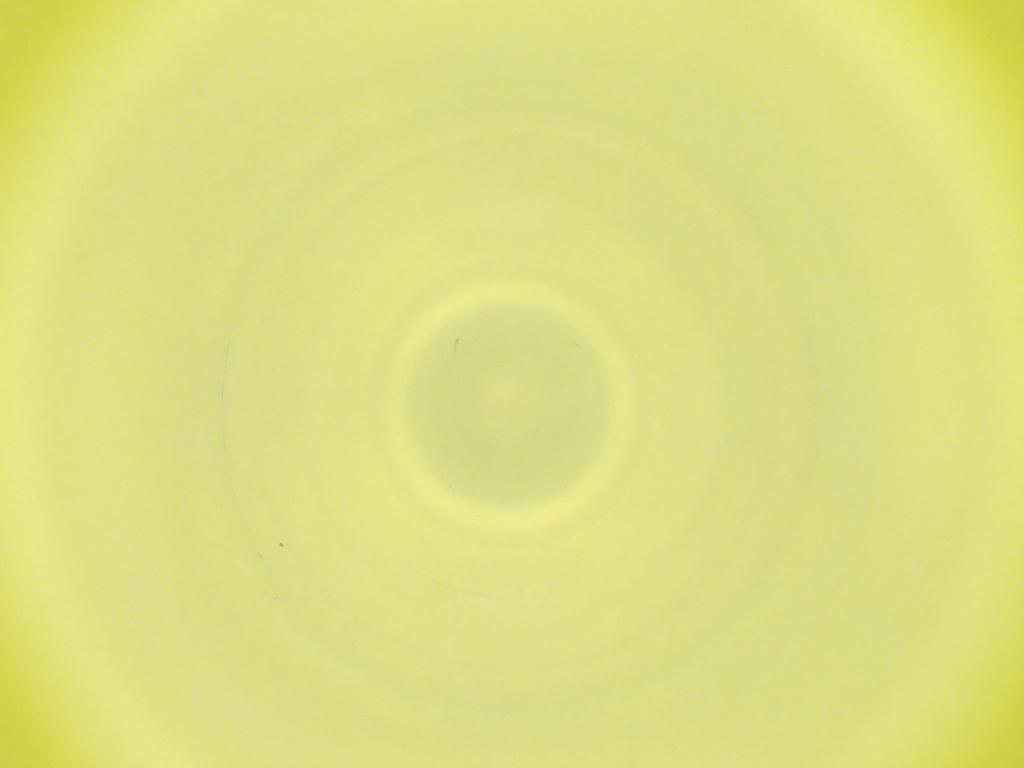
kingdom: Animalia
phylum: Arthropoda
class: Insecta
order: Diptera
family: Cecidomyiidae
